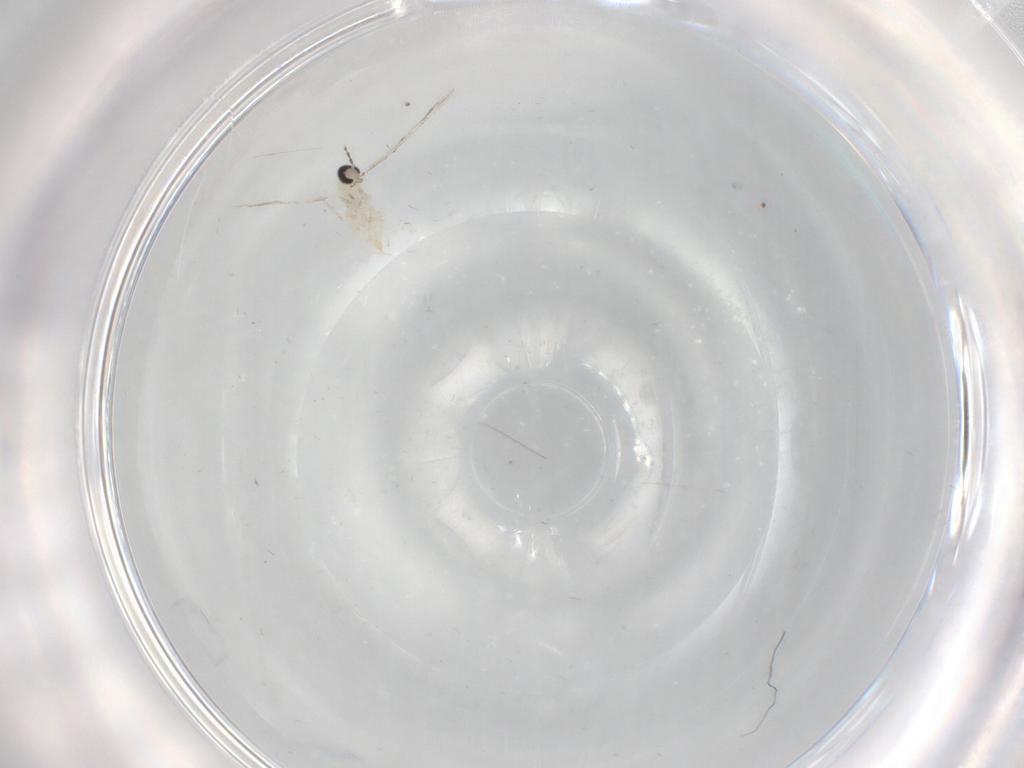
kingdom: Animalia
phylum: Arthropoda
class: Insecta
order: Diptera
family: Cecidomyiidae
